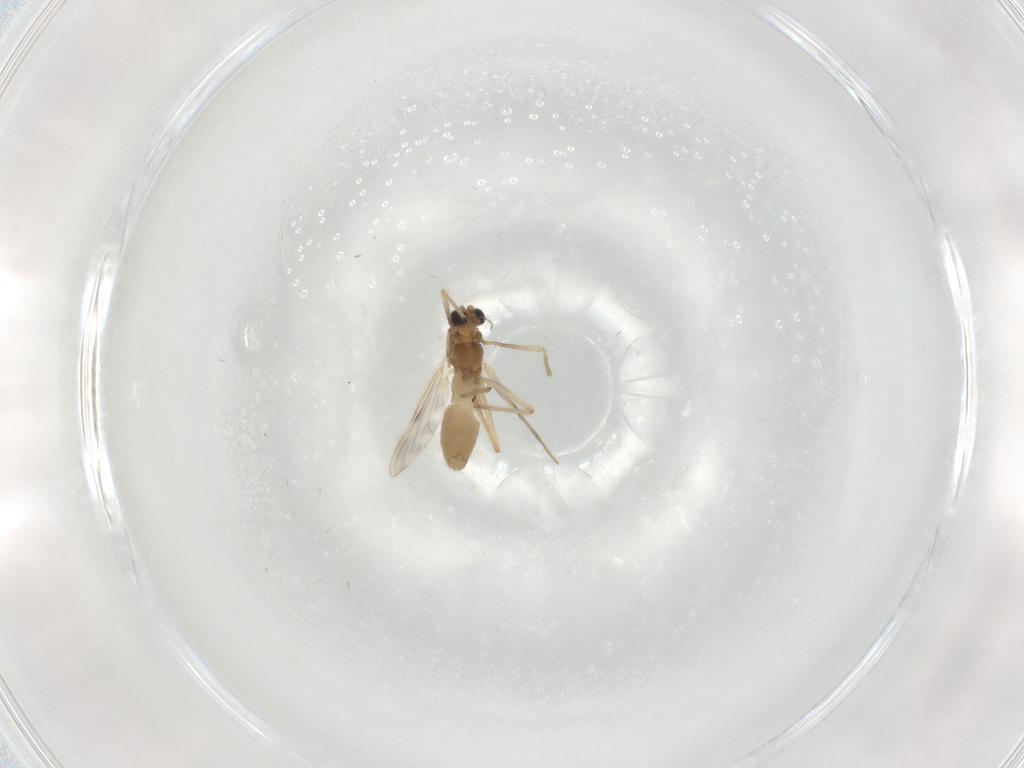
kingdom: Animalia
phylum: Arthropoda
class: Insecta
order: Diptera
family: Chironomidae
